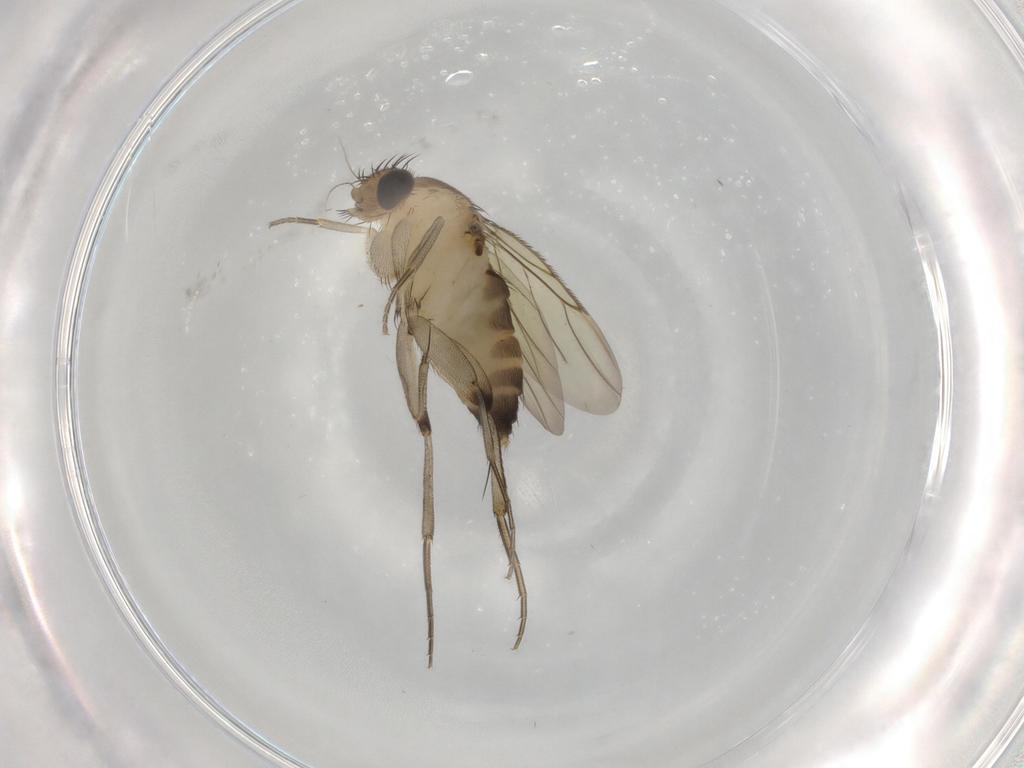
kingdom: Animalia
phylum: Arthropoda
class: Insecta
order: Diptera
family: Phoridae
